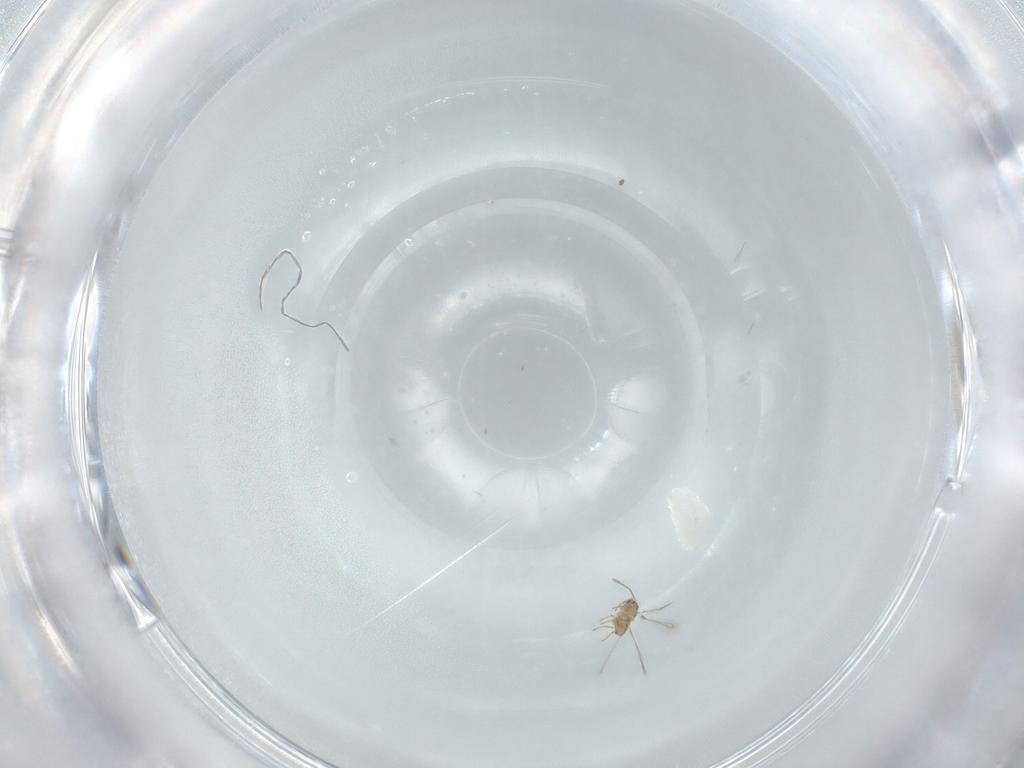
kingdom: Animalia
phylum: Arthropoda
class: Insecta
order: Hymenoptera
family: Mymaridae
